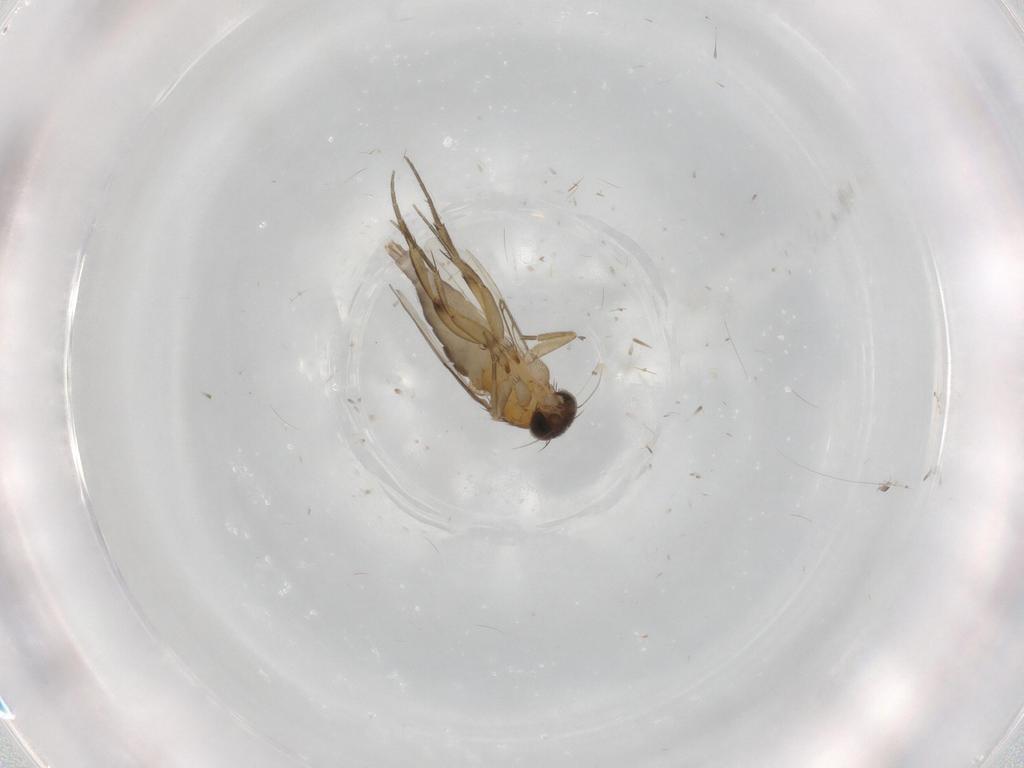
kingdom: Animalia
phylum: Arthropoda
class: Insecta
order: Diptera
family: Phoridae
